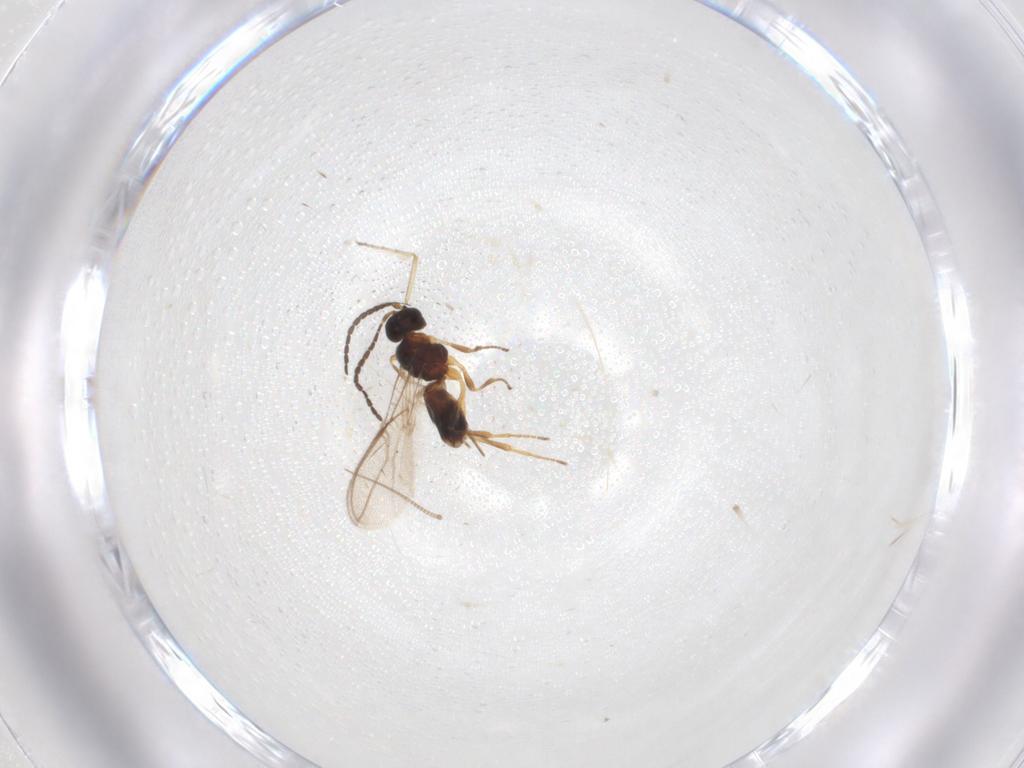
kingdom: Animalia
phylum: Arthropoda
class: Insecta
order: Hymenoptera
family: Braconidae
